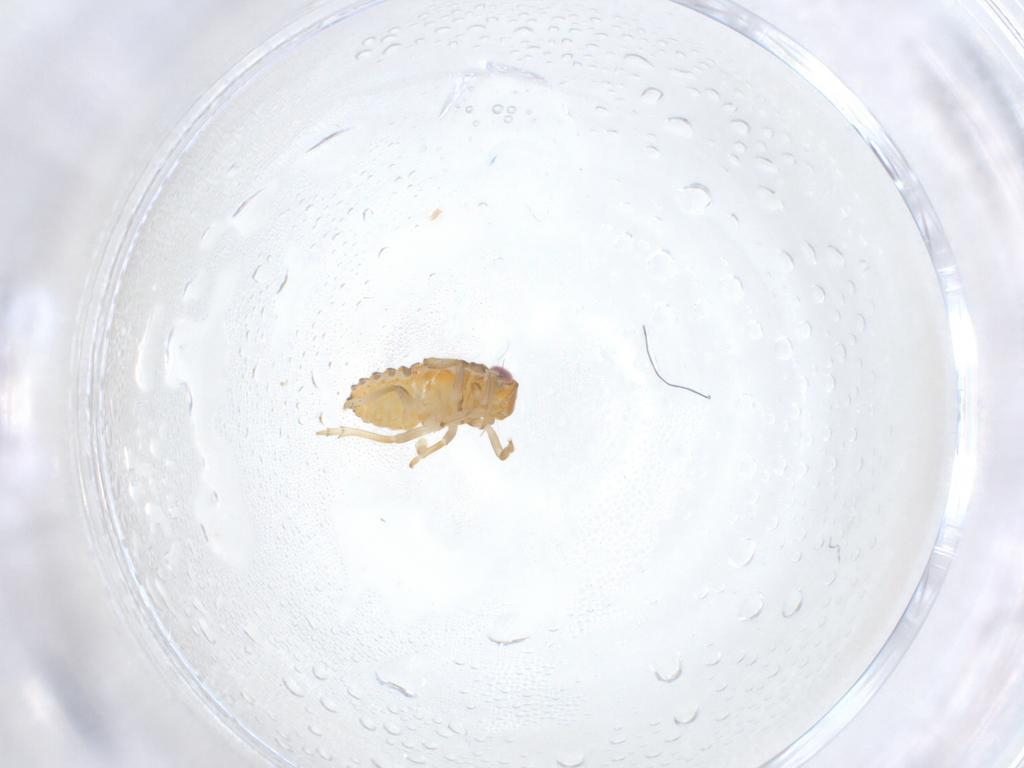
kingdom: Animalia
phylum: Arthropoda
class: Insecta
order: Hemiptera
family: Issidae
